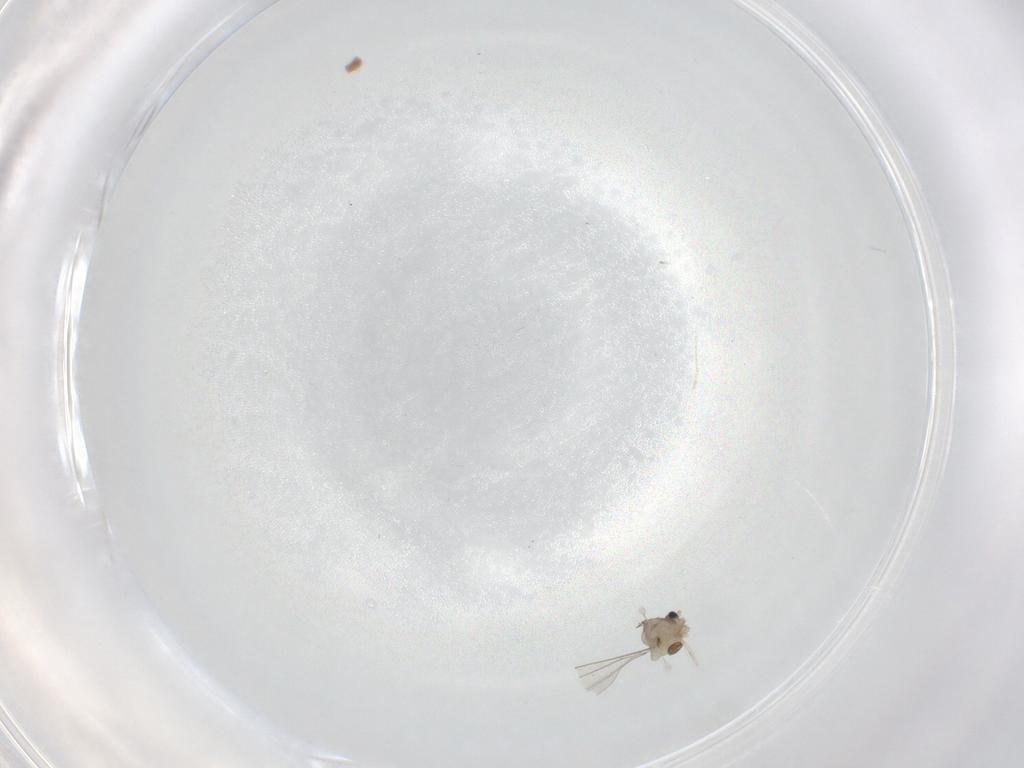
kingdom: Animalia
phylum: Arthropoda
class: Insecta
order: Diptera
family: Cecidomyiidae
